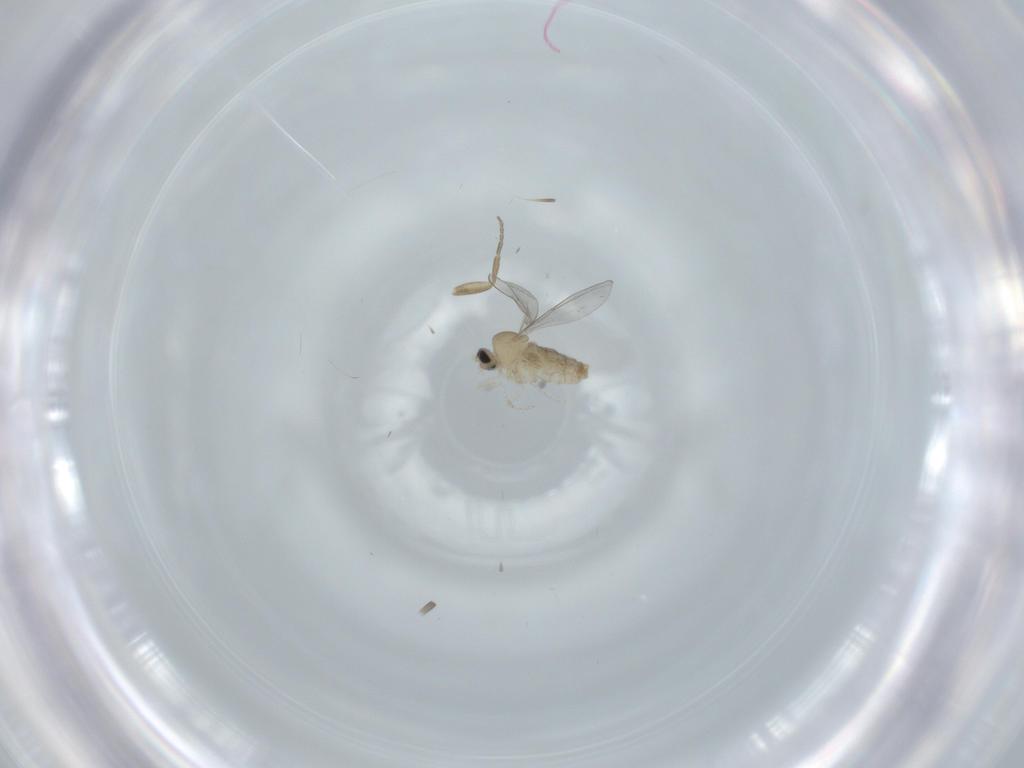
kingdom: Animalia
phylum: Arthropoda
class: Insecta
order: Diptera
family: Cecidomyiidae
